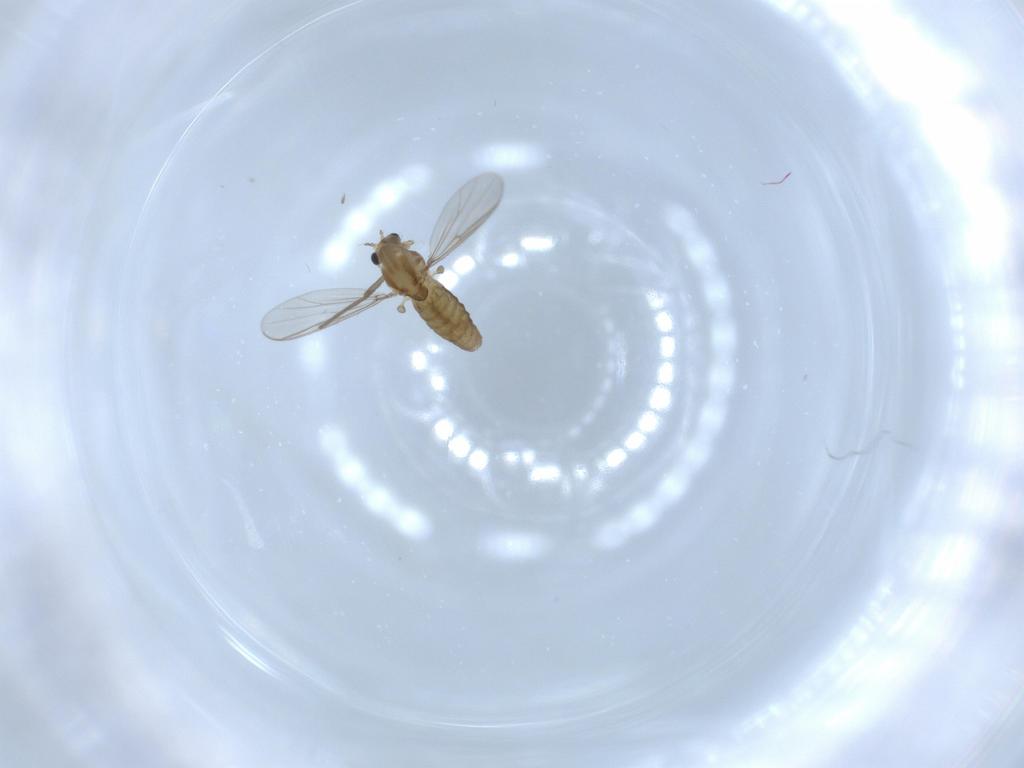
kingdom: Animalia
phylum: Arthropoda
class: Insecta
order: Diptera
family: Chironomidae
